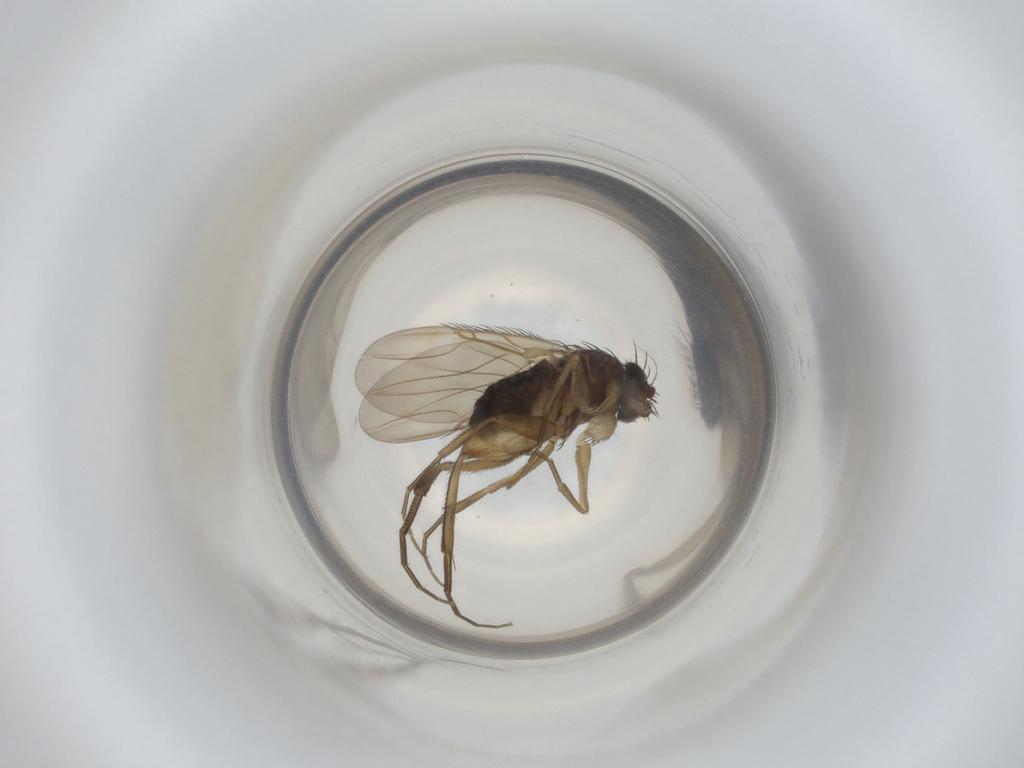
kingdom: Animalia
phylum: Arthropoda
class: Insecta
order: Diptera
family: Phoridae
